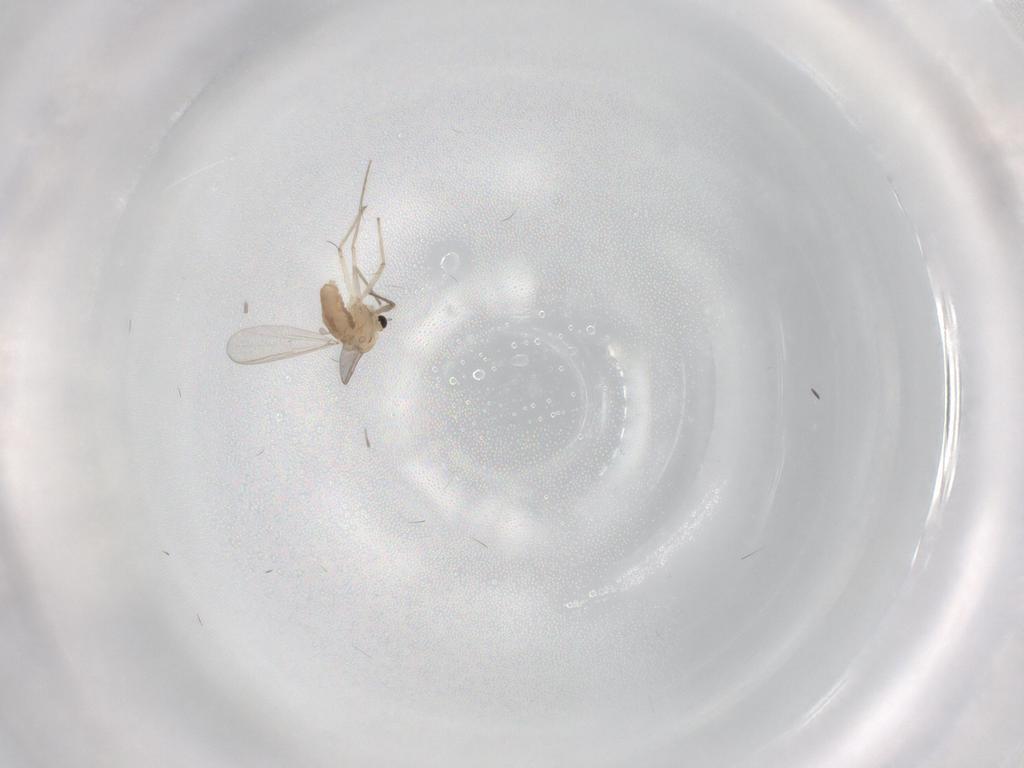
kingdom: Animalia
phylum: Arthropoda
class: Insecta
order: Diptera
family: Chironomidae
